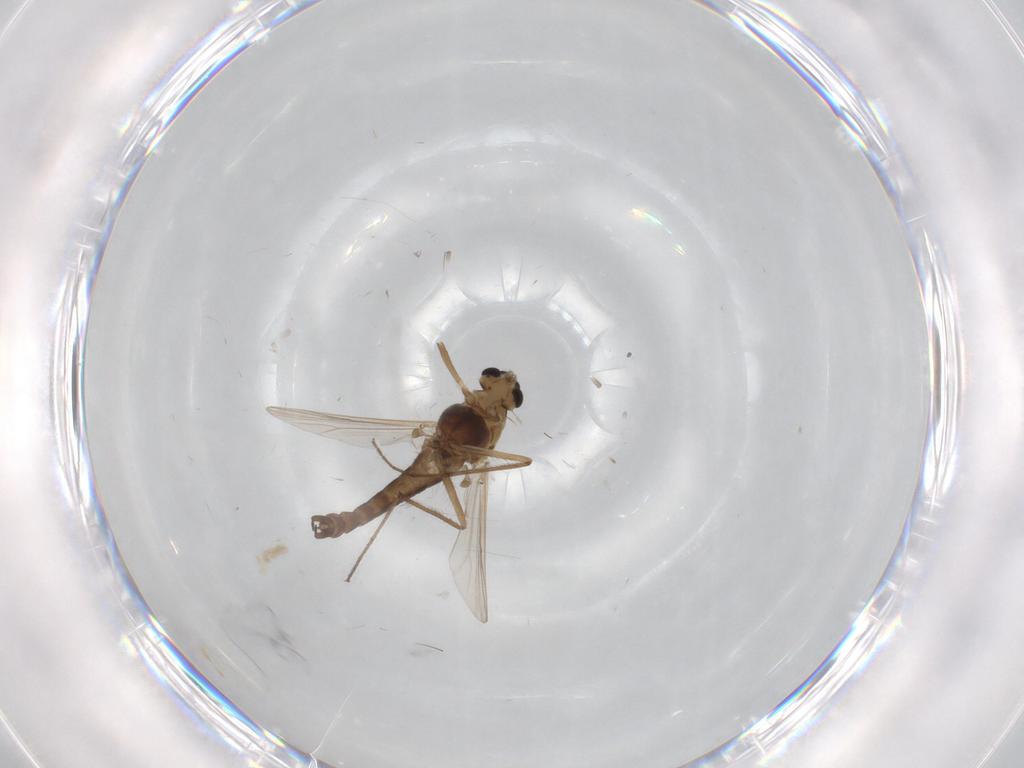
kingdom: Animalia
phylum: Arthropoda
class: Insecta
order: Diptera
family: Chironomidae
